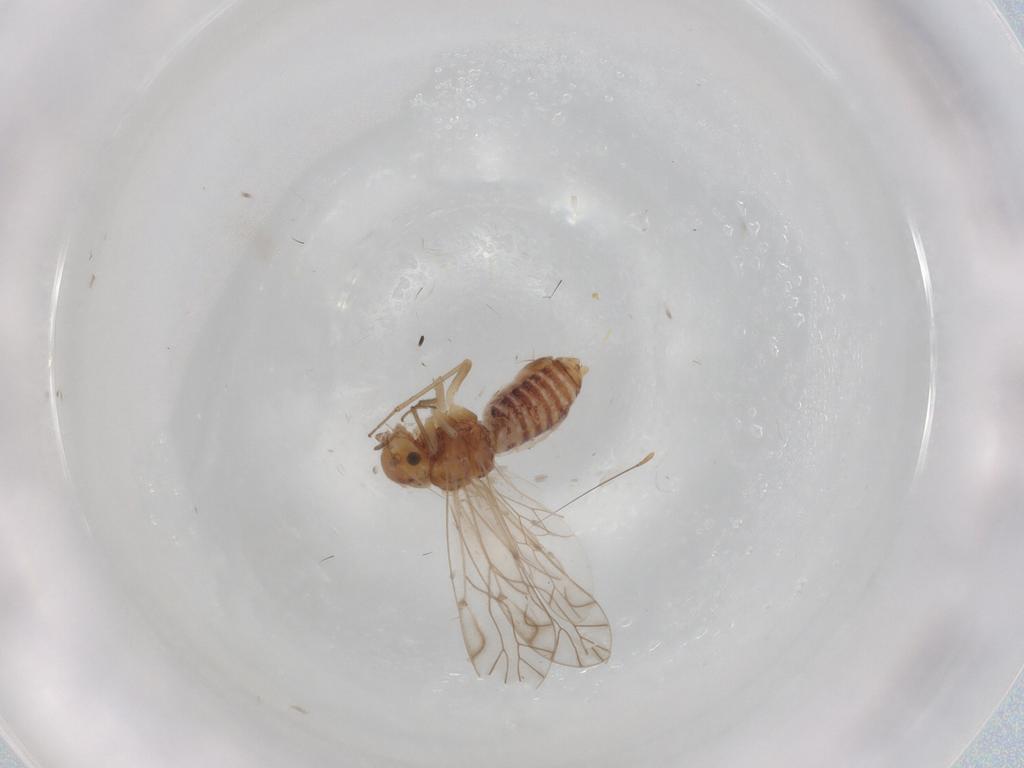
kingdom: Animalia
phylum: Arthropoda
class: Insecta
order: Psocodea
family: Lachesillidae
